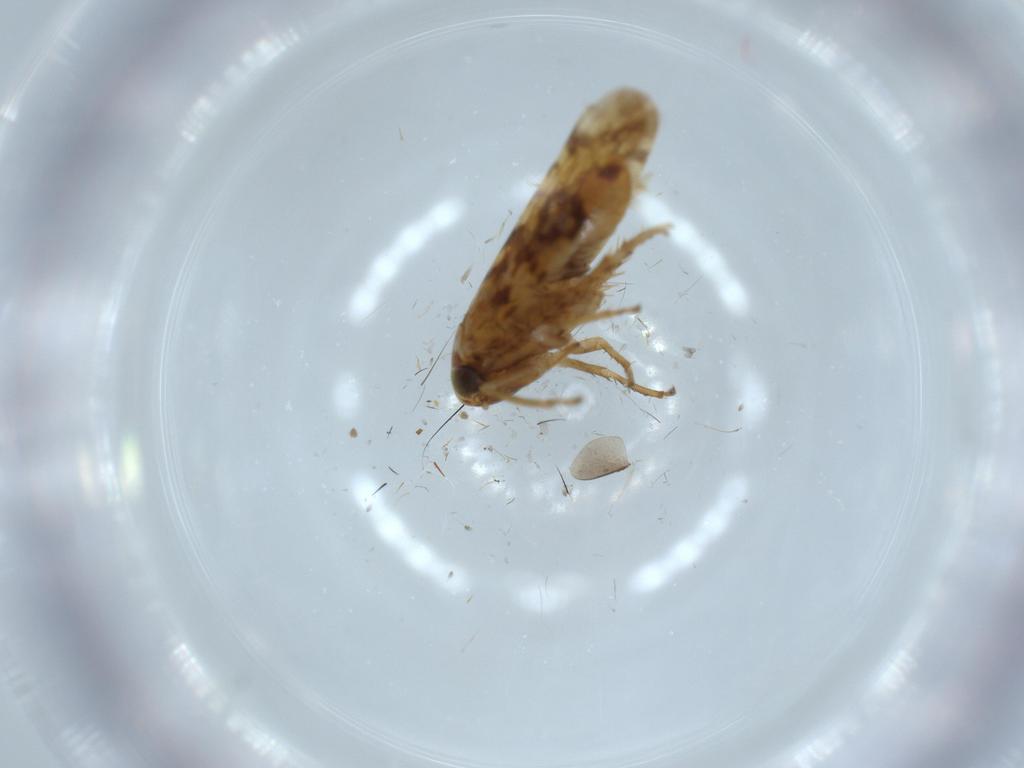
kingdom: Animalia
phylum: Arthropoda
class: Insecta
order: Hemiptera
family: Cicadellidae
